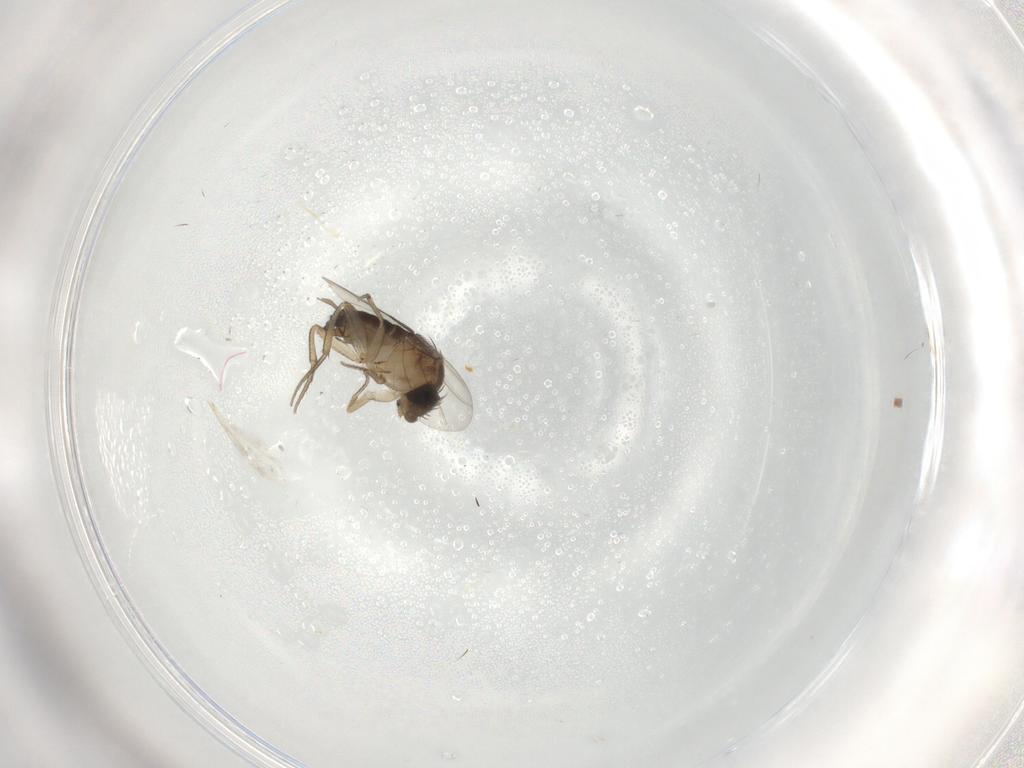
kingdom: Animalia
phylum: Arthropoda
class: Insecta
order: Diptera
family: Cecidomyiidae
